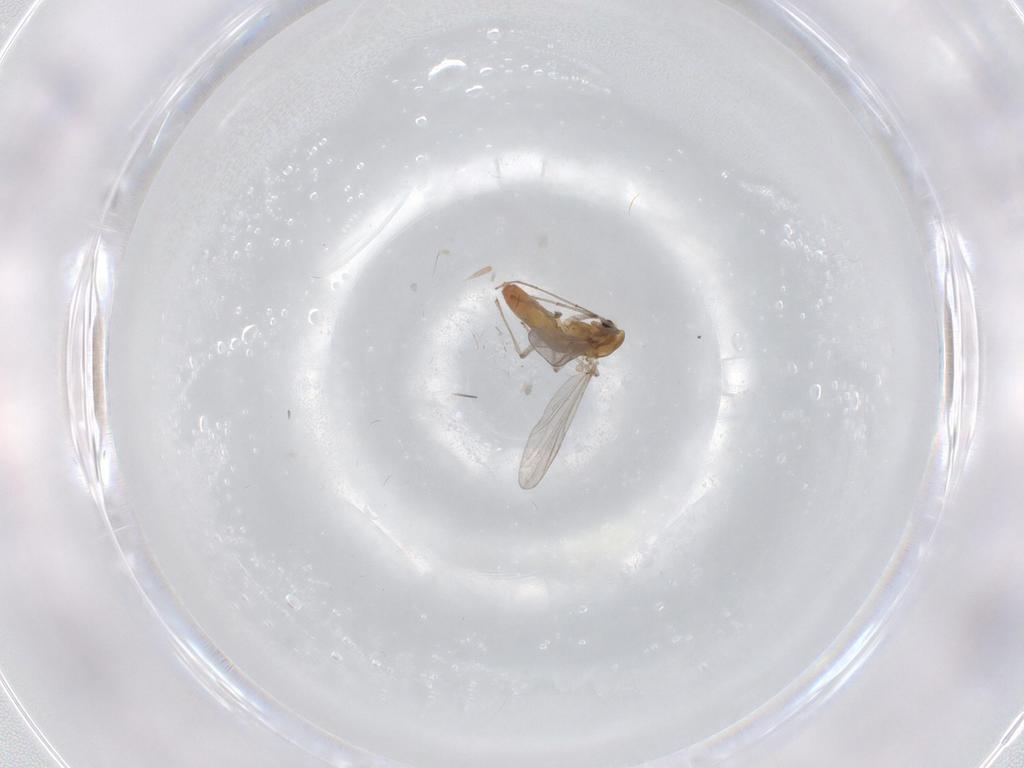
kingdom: Animalia
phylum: Arthropoda
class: Insecta
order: Diptera
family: Chironomidae
